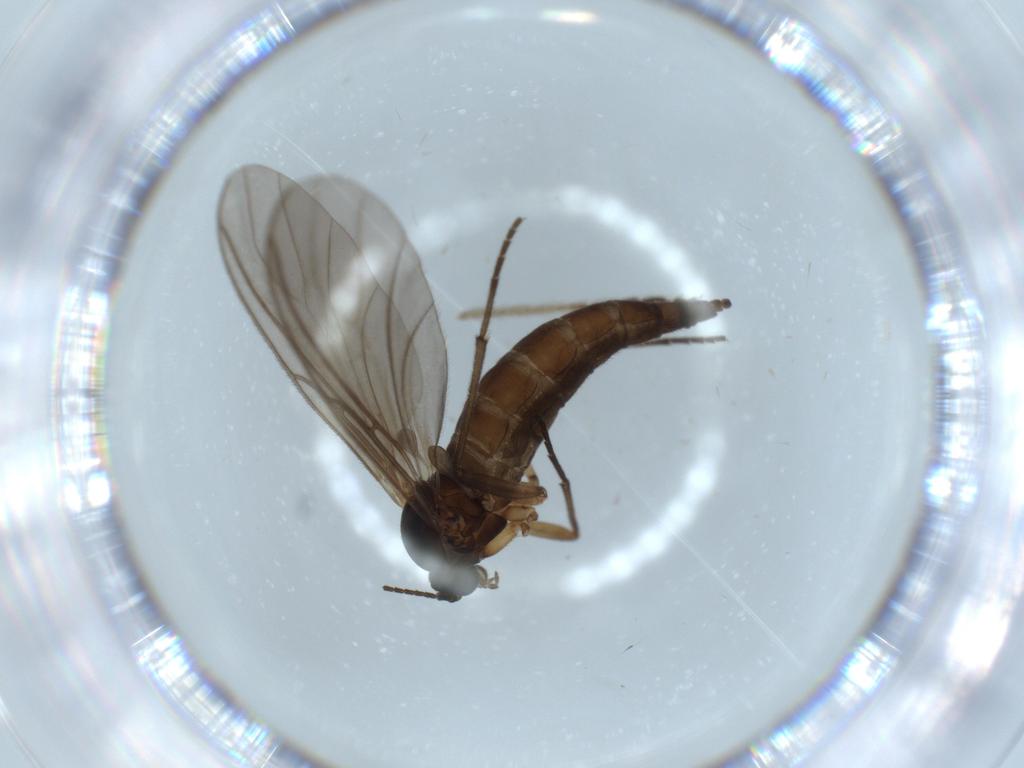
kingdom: Animalia
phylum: Arthropoda
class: Insecta
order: Diptera
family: Sciaridae
